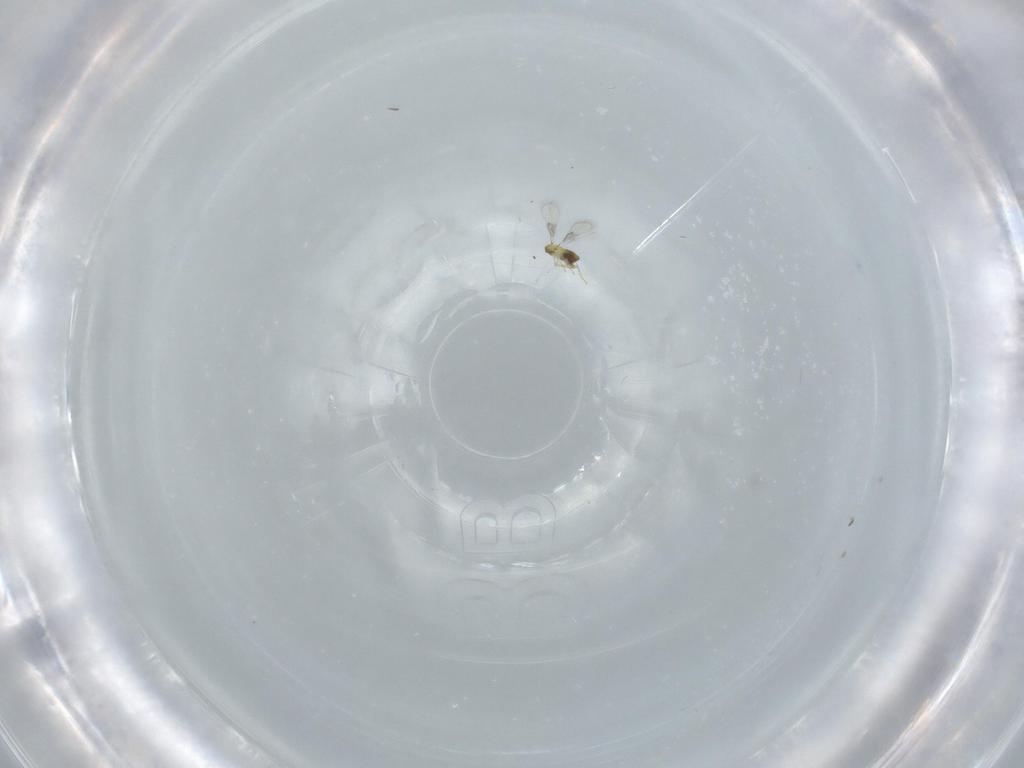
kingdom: Animalia
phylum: Arthropoda
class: Insecta
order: Hymenoptera
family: Trichogrammatidae
